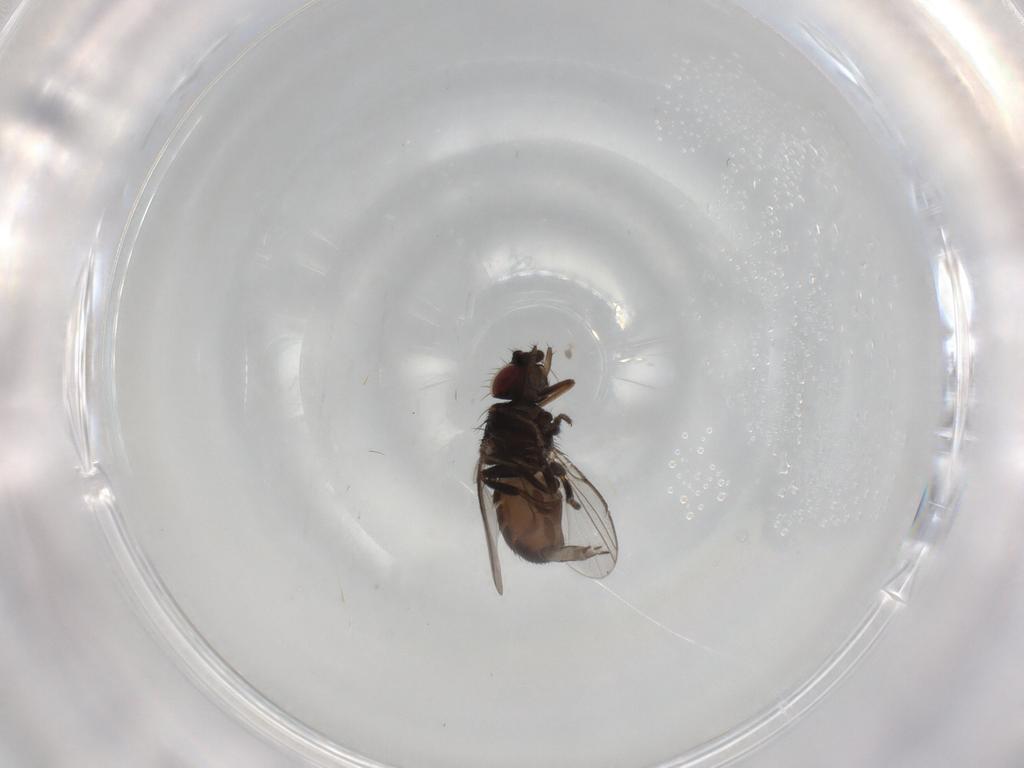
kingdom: Animalia
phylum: Arthropoda
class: Insecta
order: Diptera
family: Milichiidae
